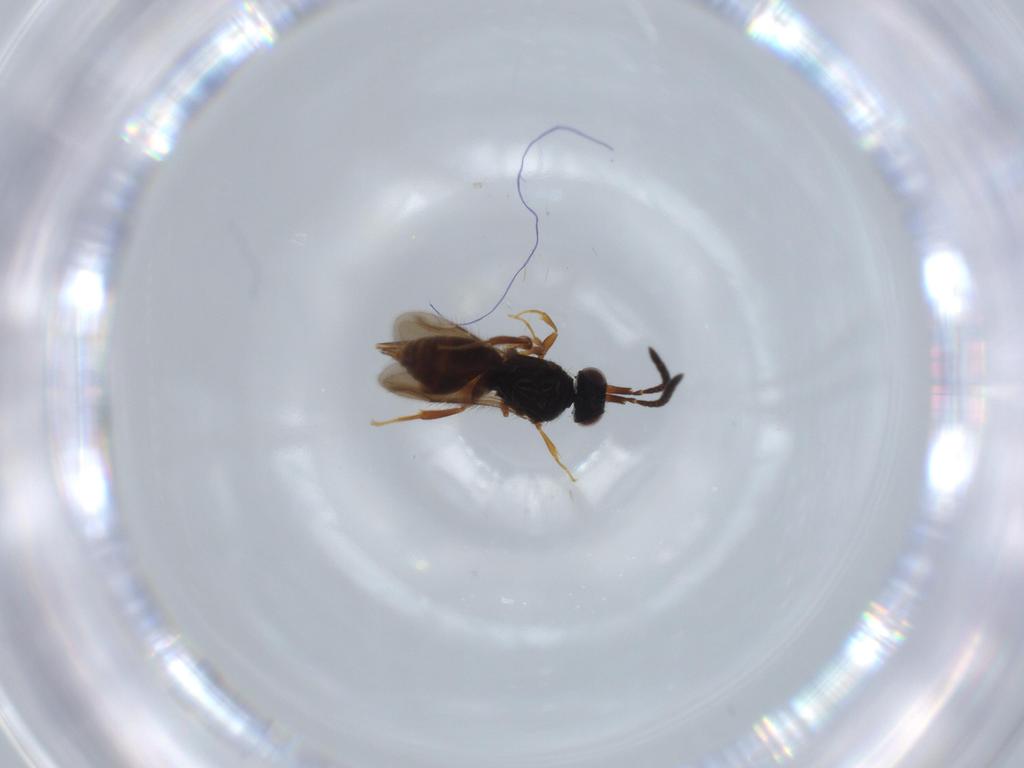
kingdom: Animalia
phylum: Arthropoda
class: Insecta
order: Hymenoptera
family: Ceraphronidae
